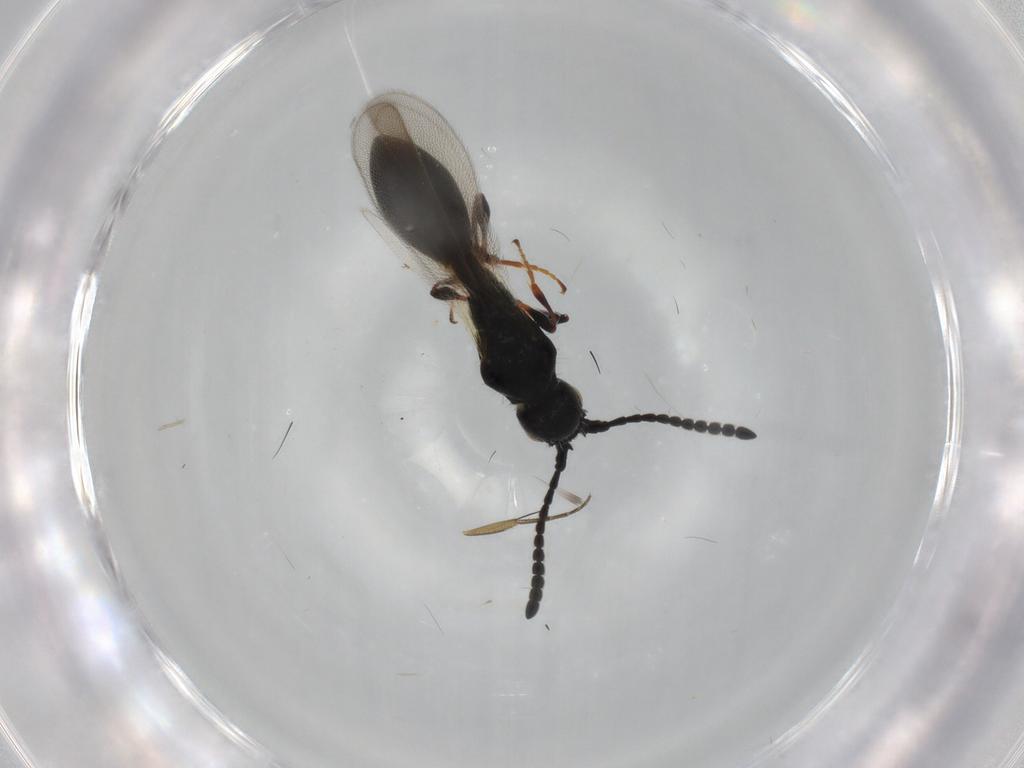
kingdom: Animalia
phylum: Arthropoda
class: Insecta
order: Hymenoptera
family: Diapriidae
